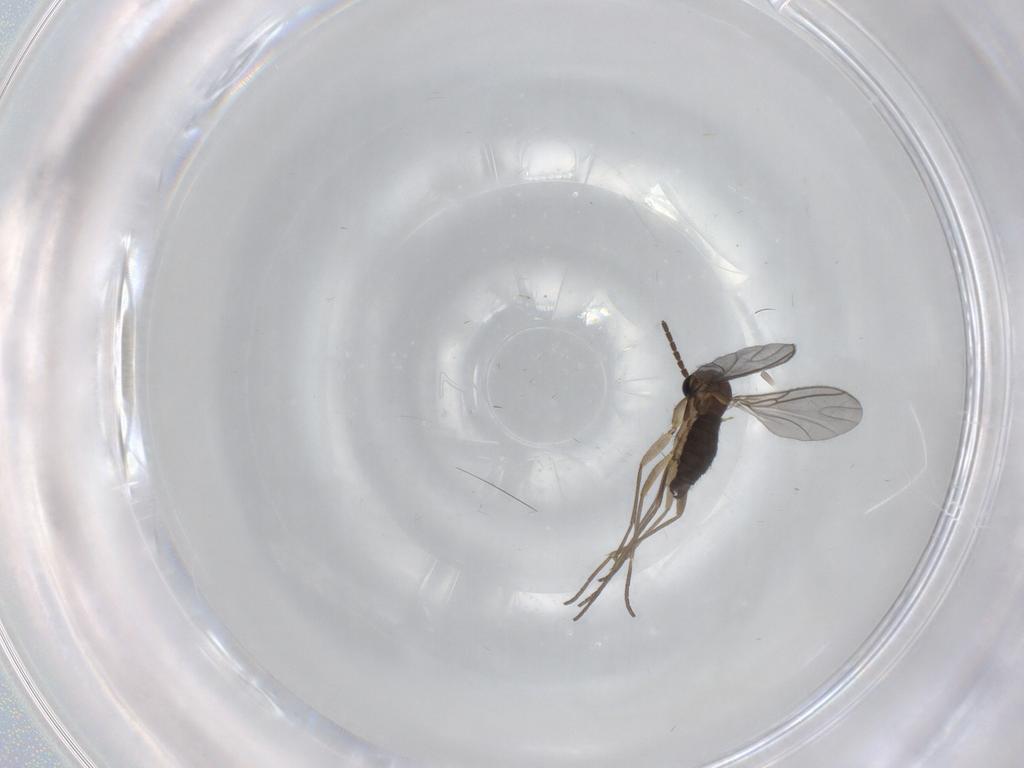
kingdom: Animalia
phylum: Arthropoda
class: Insecta
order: Diptera
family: Sciaridae
